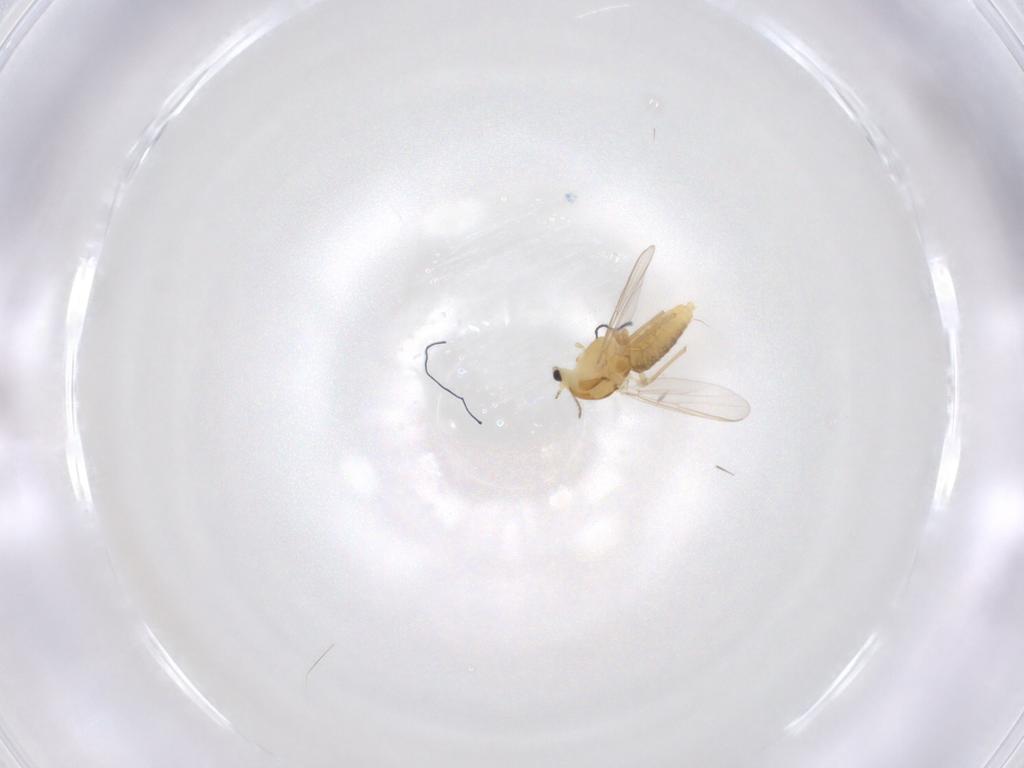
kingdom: Animalia
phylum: Arthropoda
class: Insecta
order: Diptera
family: Chironomidae
